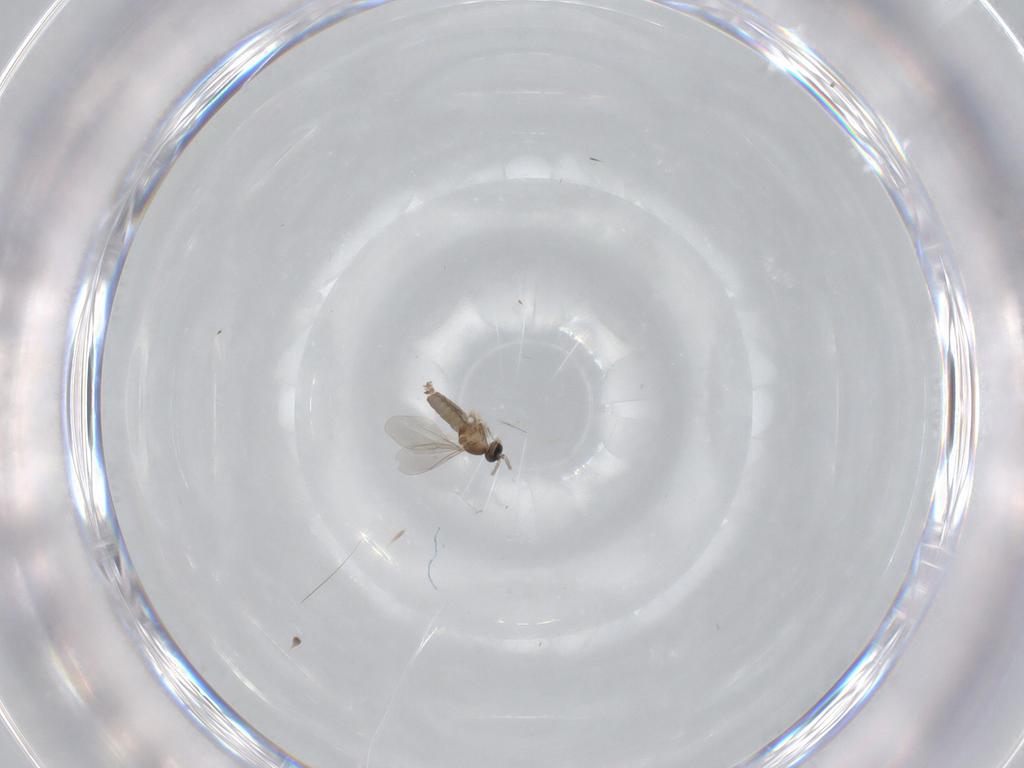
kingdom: Animalia
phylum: Arthropoda
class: Insecta
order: Diptera
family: Cecidomyiidae
